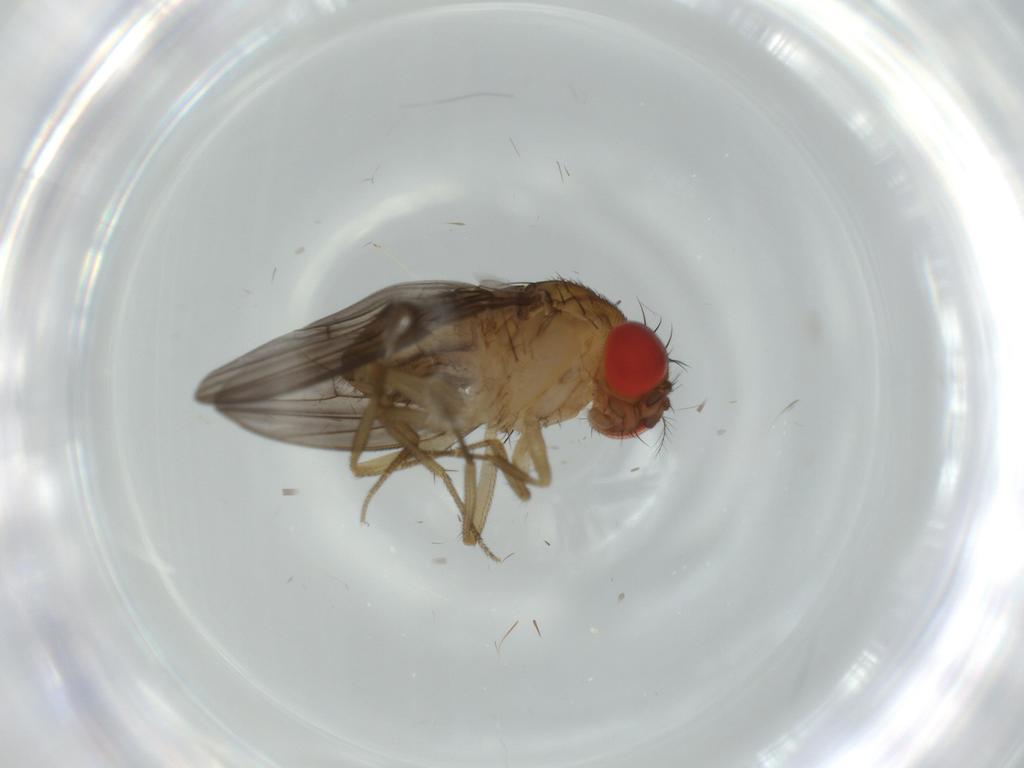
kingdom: Animalia
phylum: Arthropoda
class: Insecta
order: Diptera
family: Drosophilidae
